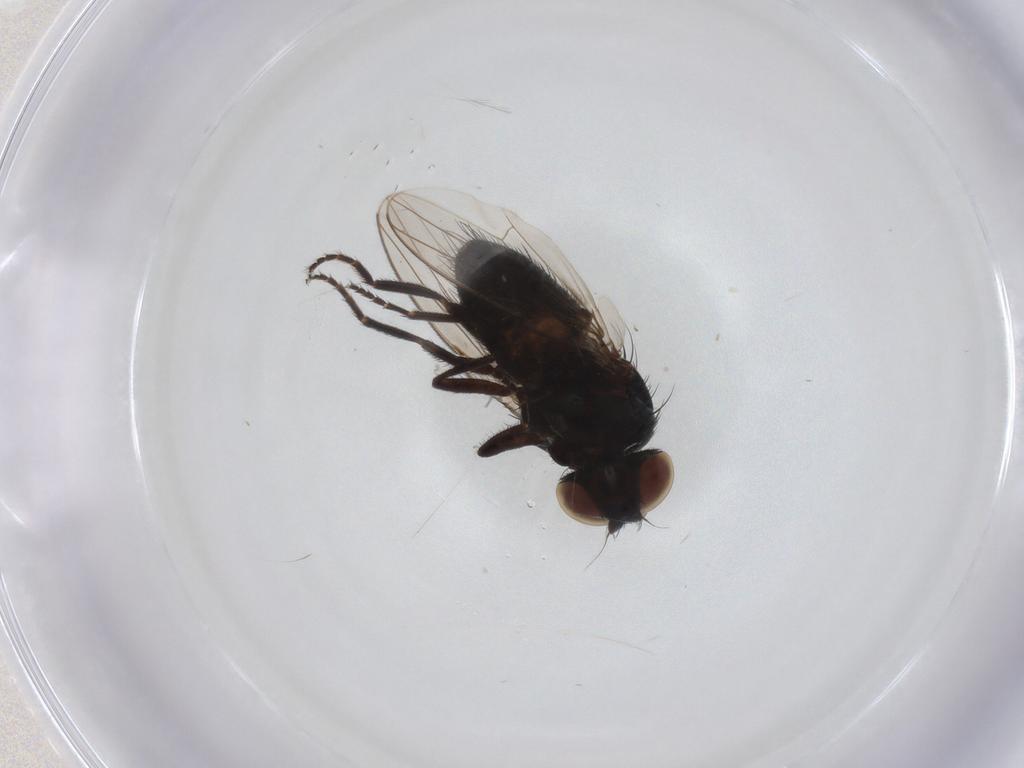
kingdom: Animalia
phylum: Arthropoda
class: Insecta
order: Diptera
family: Chloropidae
